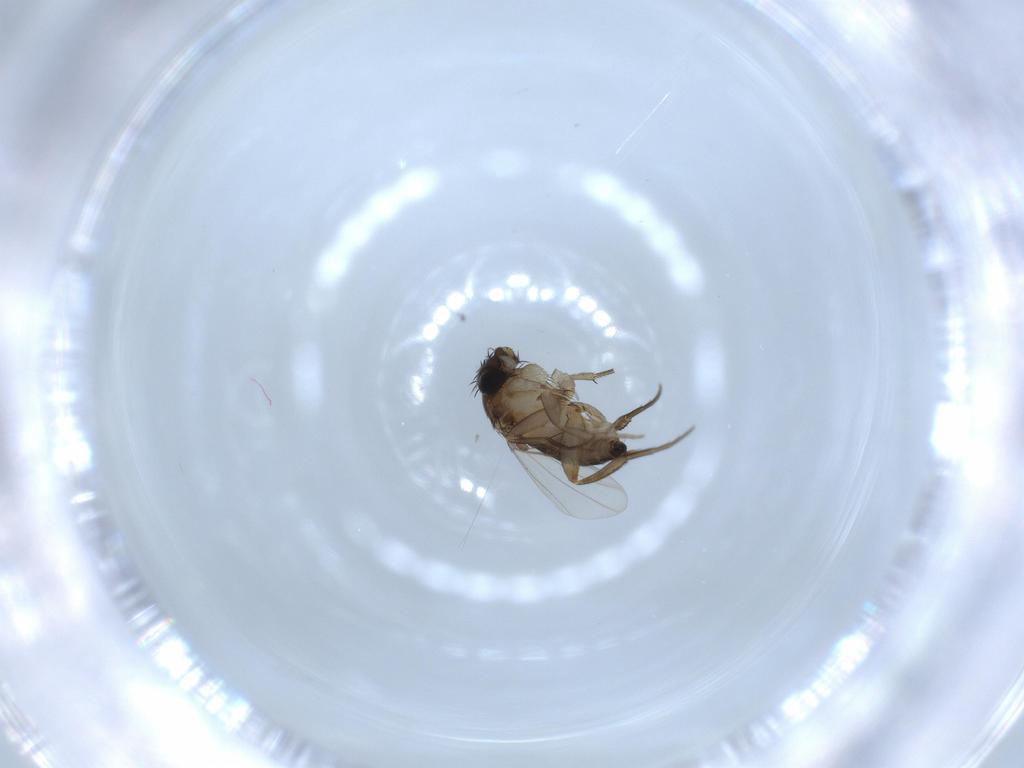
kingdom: Animalia
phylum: Arthropoda
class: Insecta
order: Diptera
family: Phoridae
